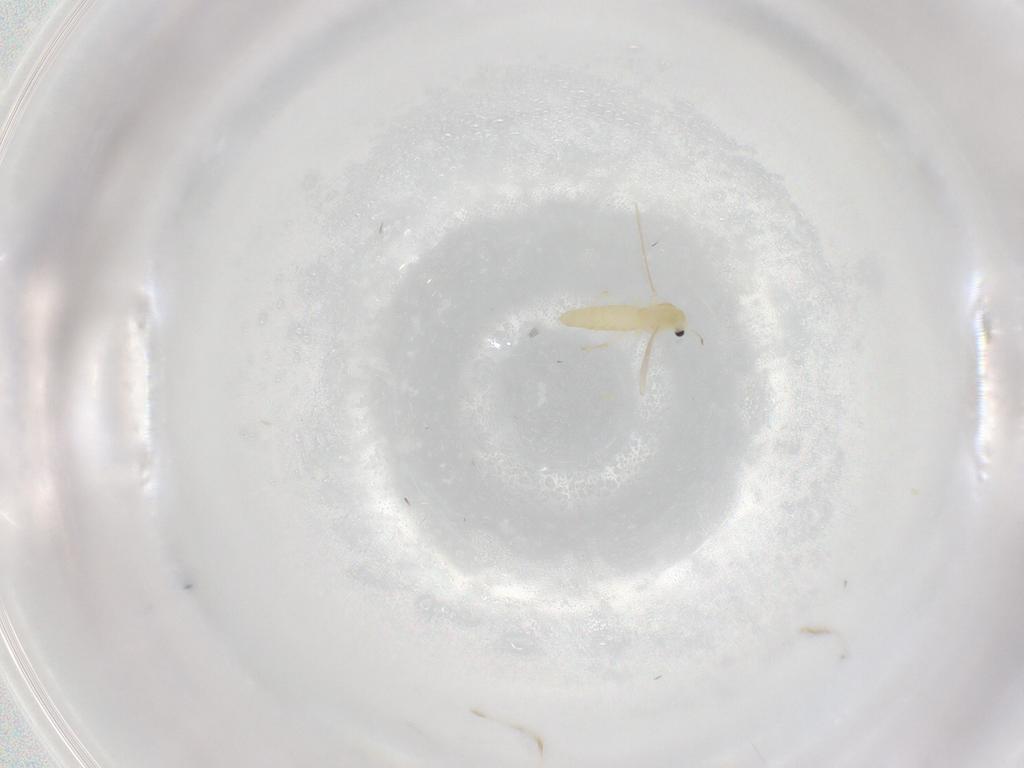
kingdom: Animalia
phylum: Arthropoda
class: Insecta
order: Diptera
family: Chironomidae
